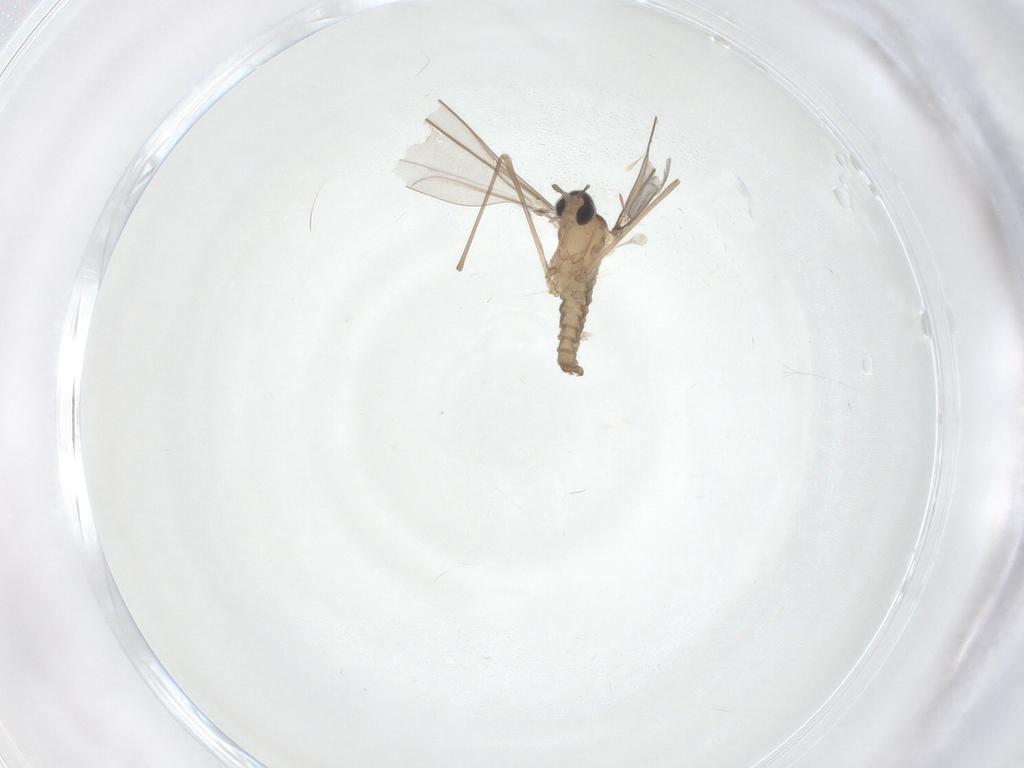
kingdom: Animalia
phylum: Arthropoda
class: Insecta
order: Diptera
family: Cecidomyiidae
